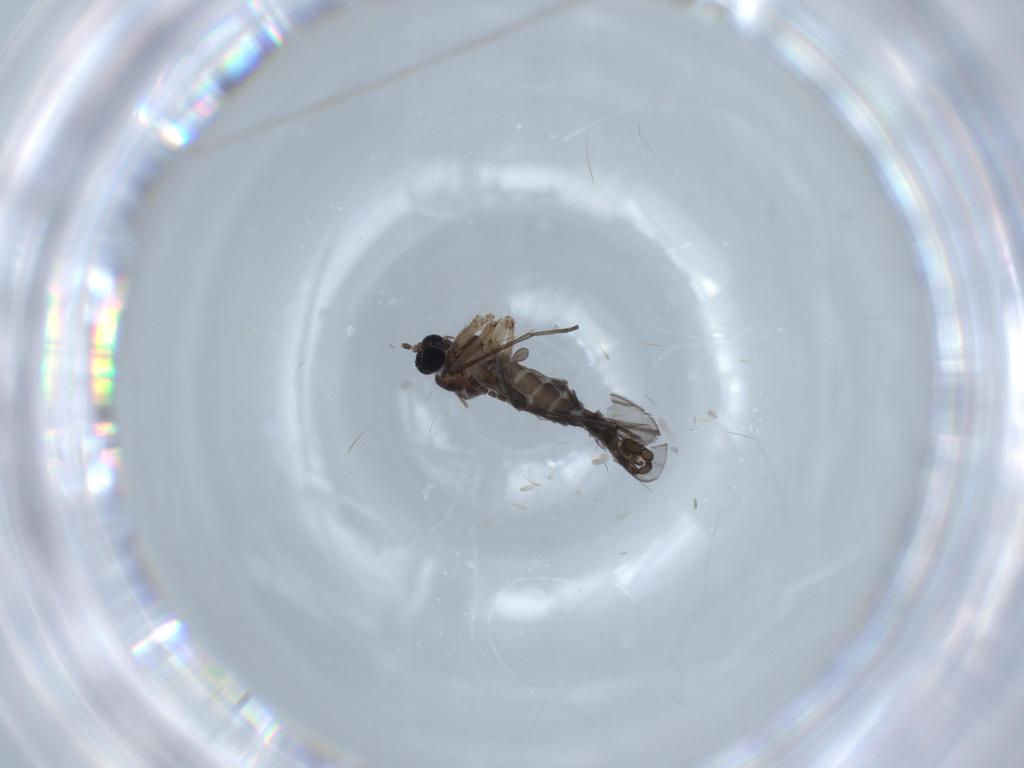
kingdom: Animalia
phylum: Arthropoda
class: Insecta
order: Diptera
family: Sciaridae
